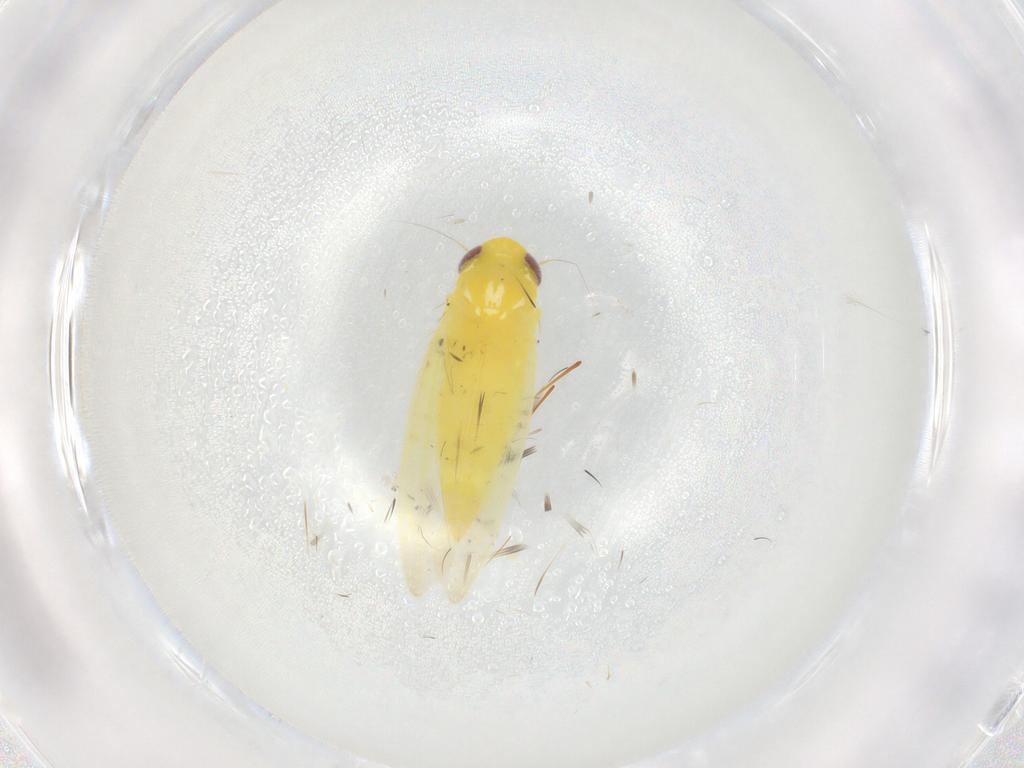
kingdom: Animalia
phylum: Arthropoda
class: Insecta
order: Hemiptera
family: Cicadellidae
